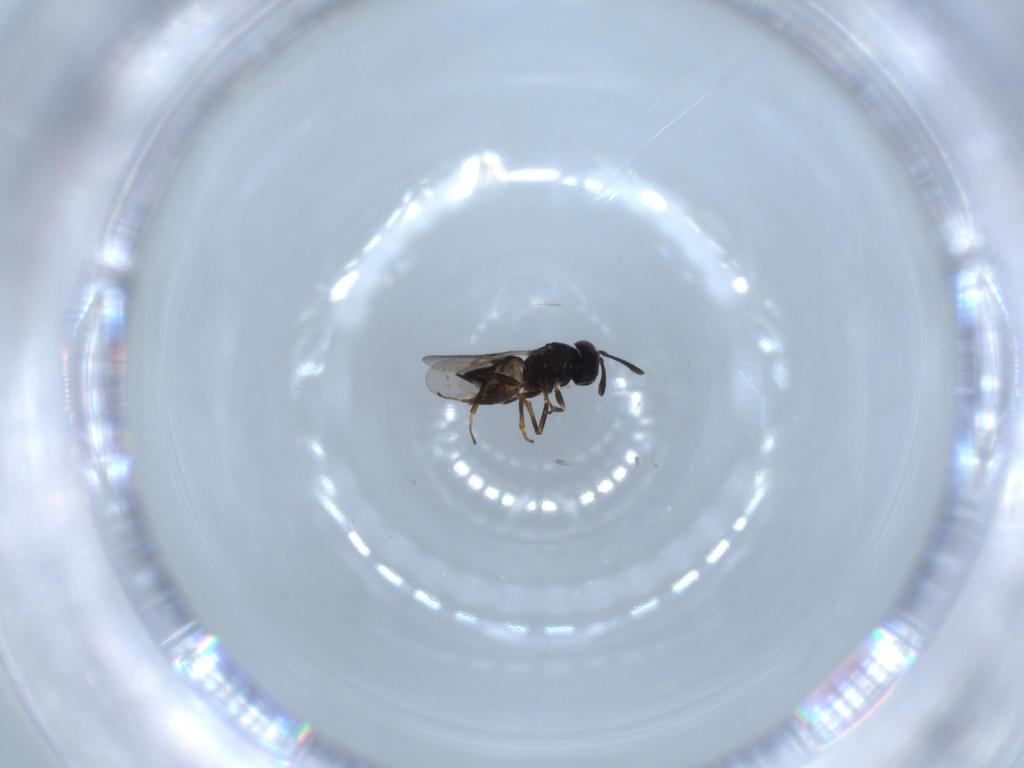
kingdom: Animalia
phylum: Arthropoda
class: Insecta
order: Hymenoptera
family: Encyrtidae
